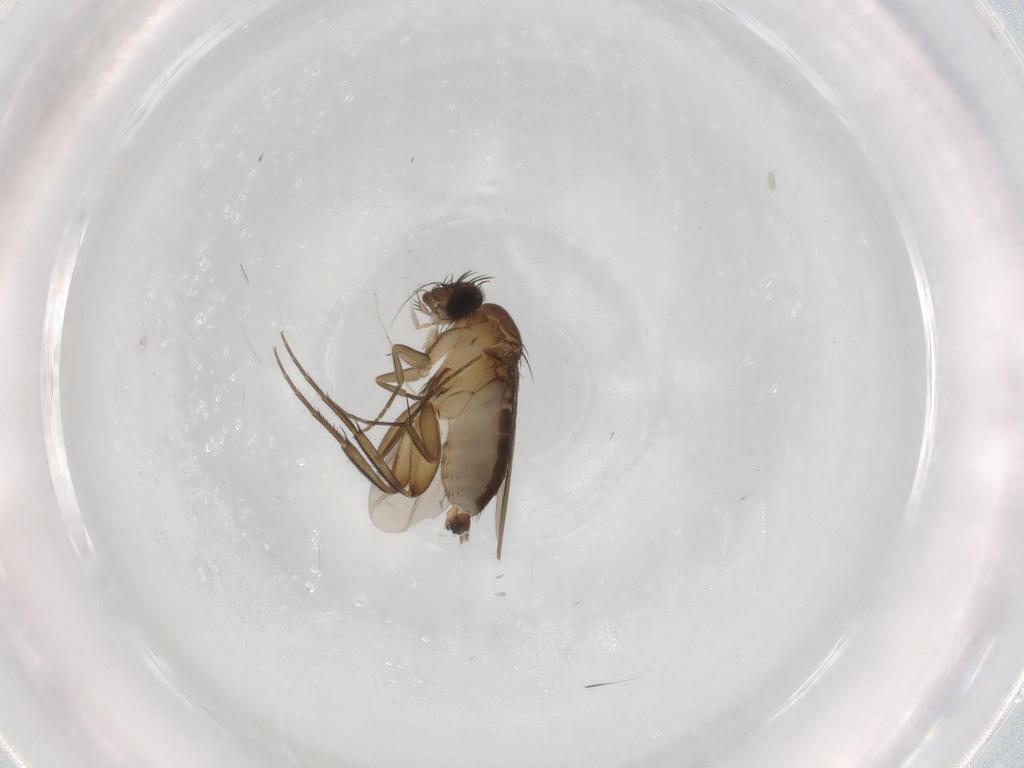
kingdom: Animalia
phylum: Arthropoda
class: Insecta
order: Diptera
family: Phoridae
